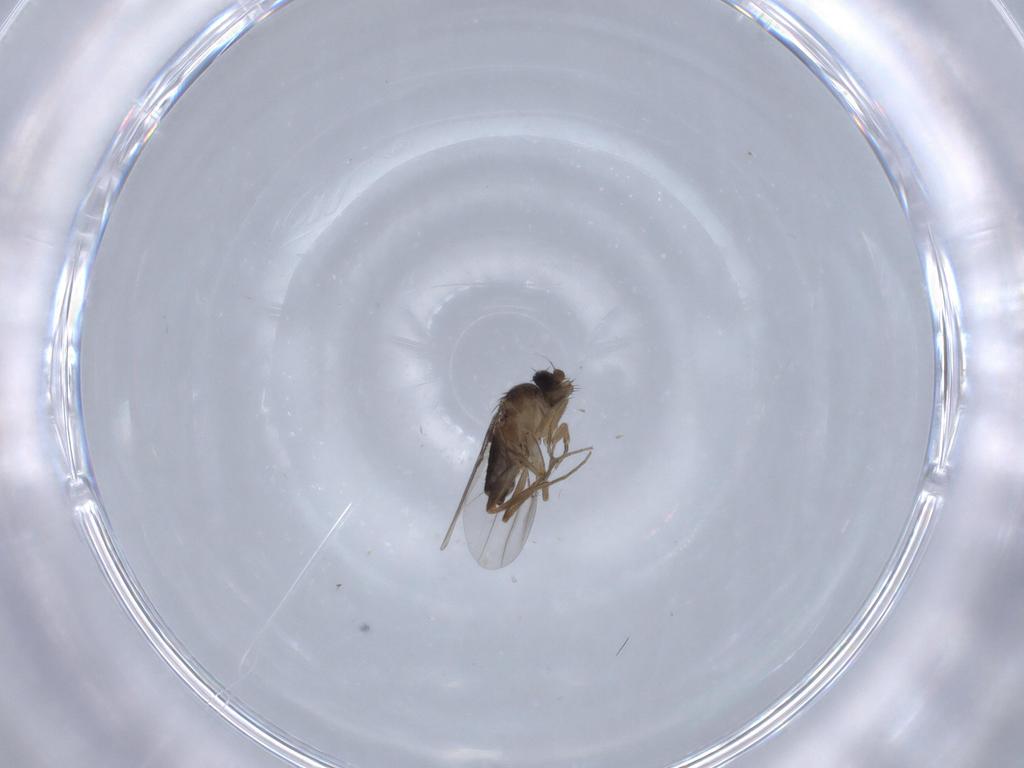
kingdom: Animalia
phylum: Arthropoda
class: Insecta
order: Diptera
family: Phoridae
